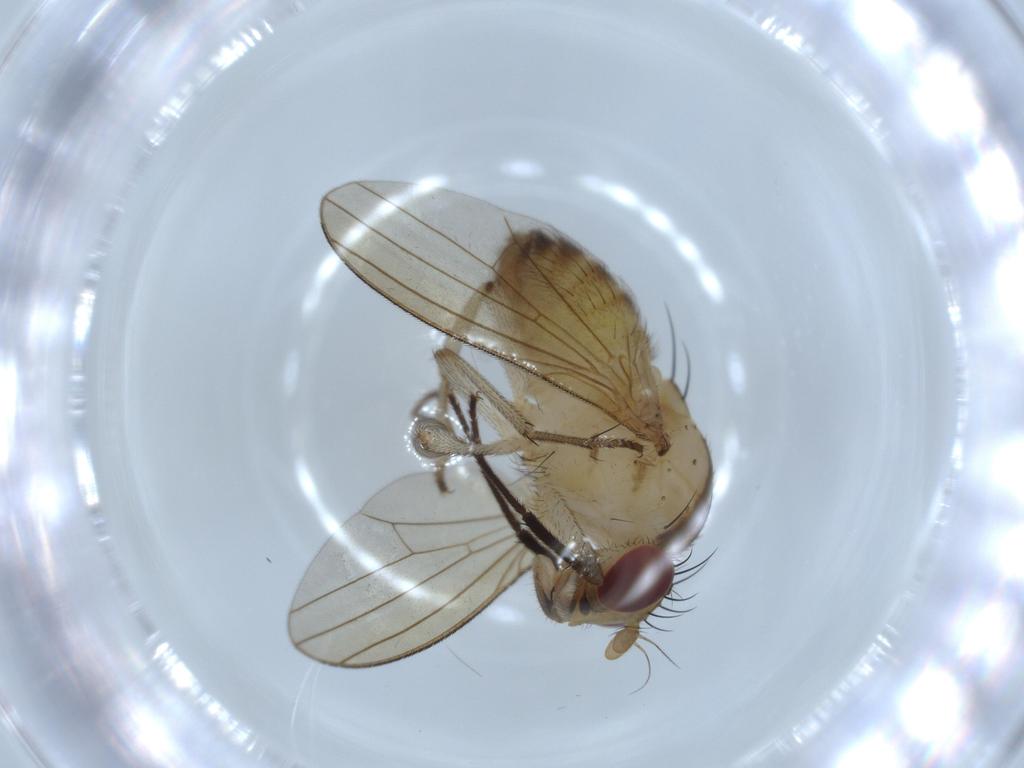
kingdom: Animalia
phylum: Arthropoda
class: Insecta
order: Diptera
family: Lauxaniidae
